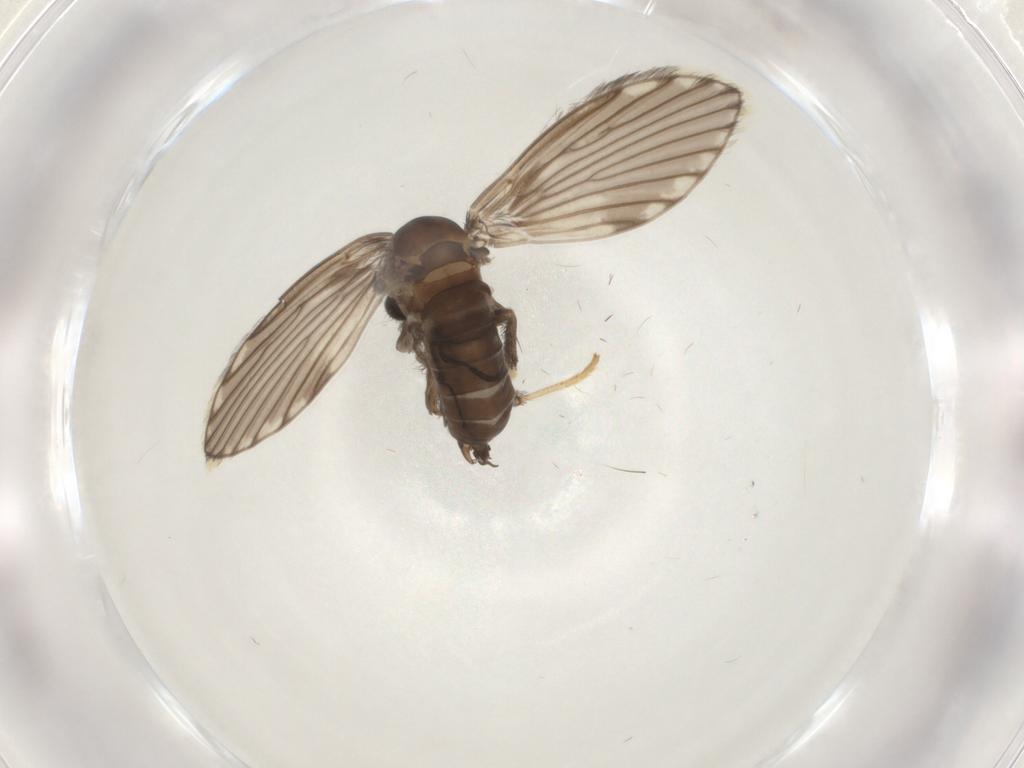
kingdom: Animalia
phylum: Arthropoda
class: Insecta
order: Diptera
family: Psychodidae
